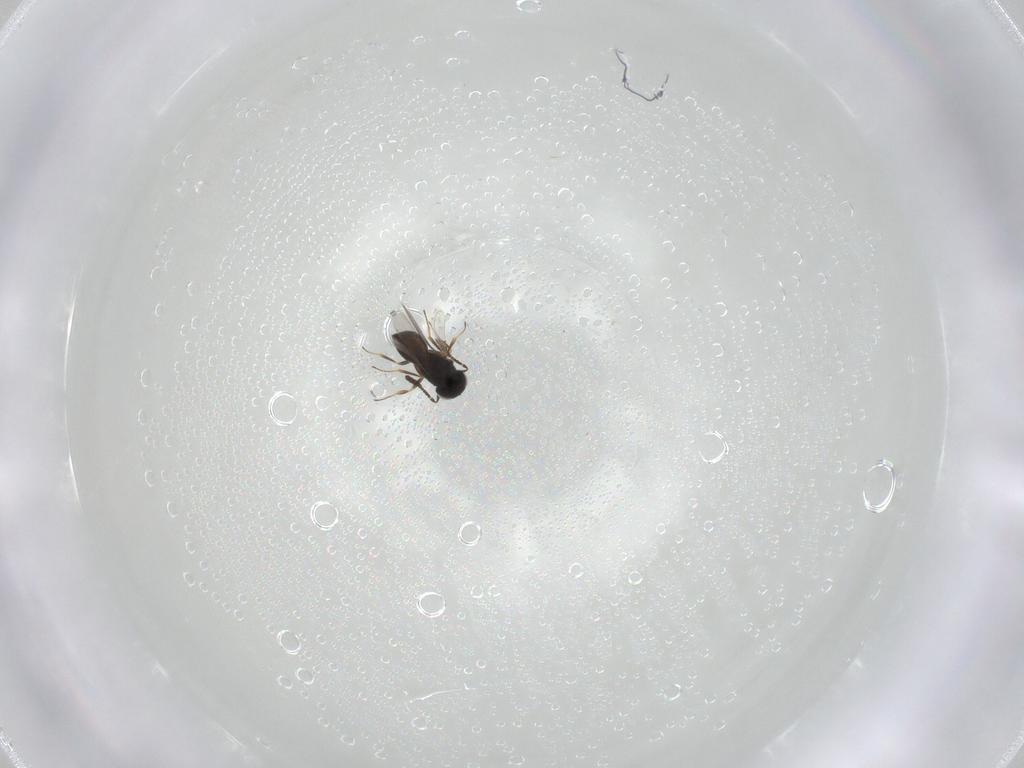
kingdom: Animalia
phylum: Arthropoda
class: Insecta
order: Hymenoptera
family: Scelionidae
